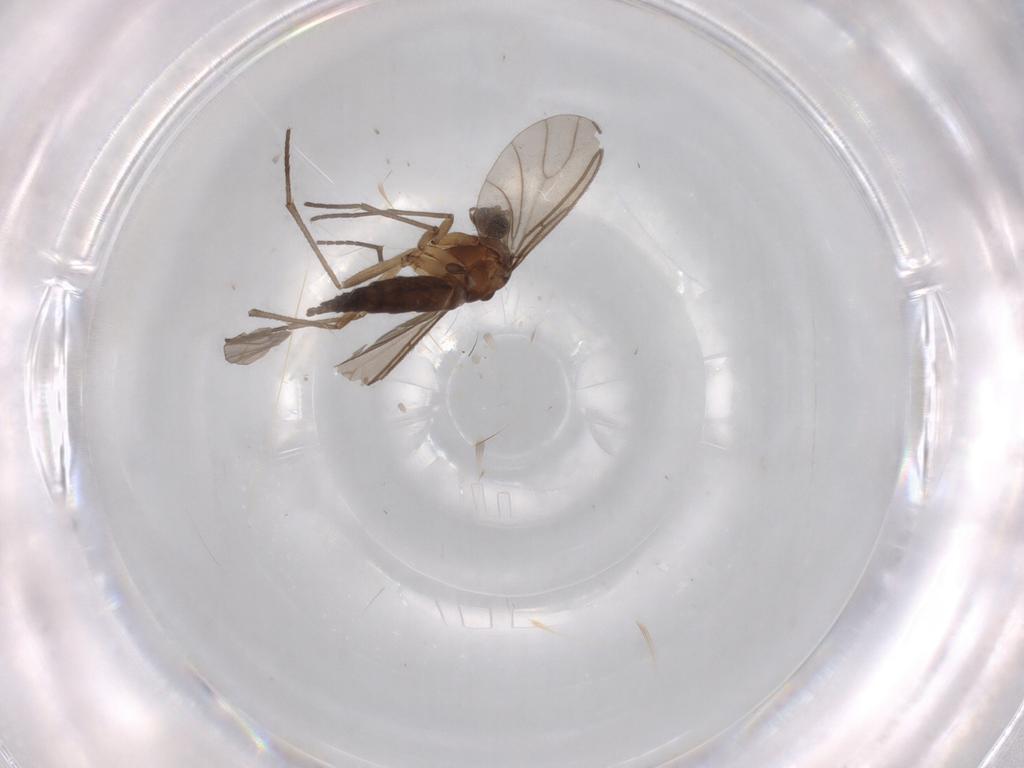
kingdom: Animalia
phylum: Arthropoda
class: Insecta
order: Diptera
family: Sciaridae
